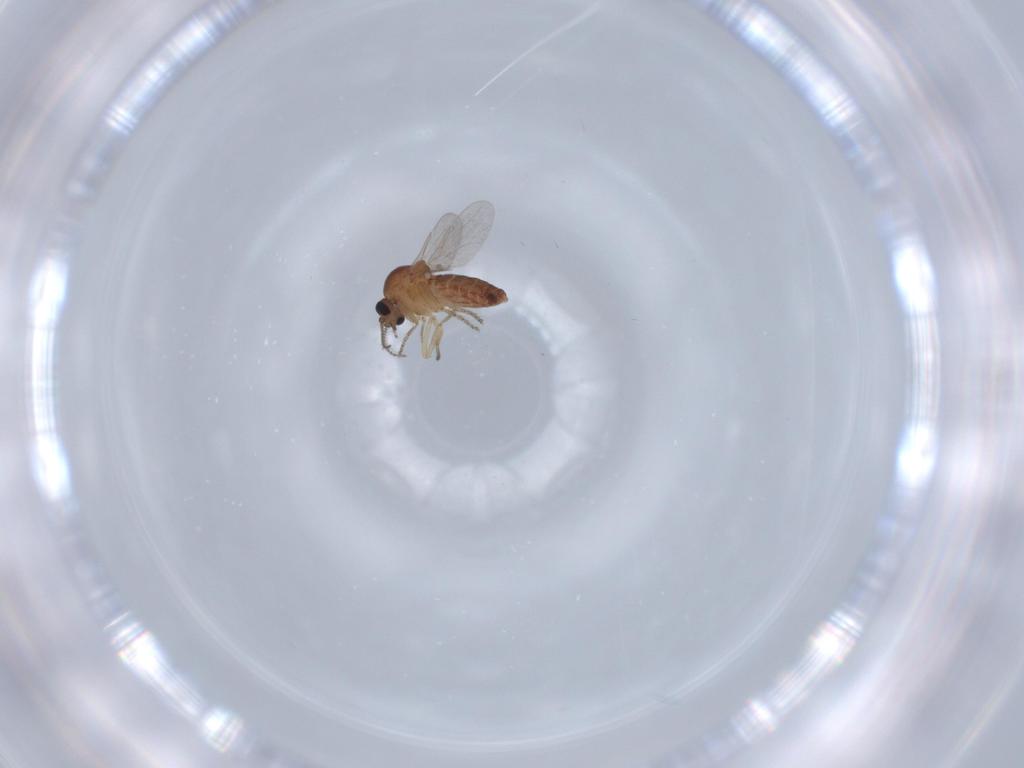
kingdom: Animalia
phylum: Arthropoda
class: Insecta
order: Diptera
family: Ceratopogonidae
